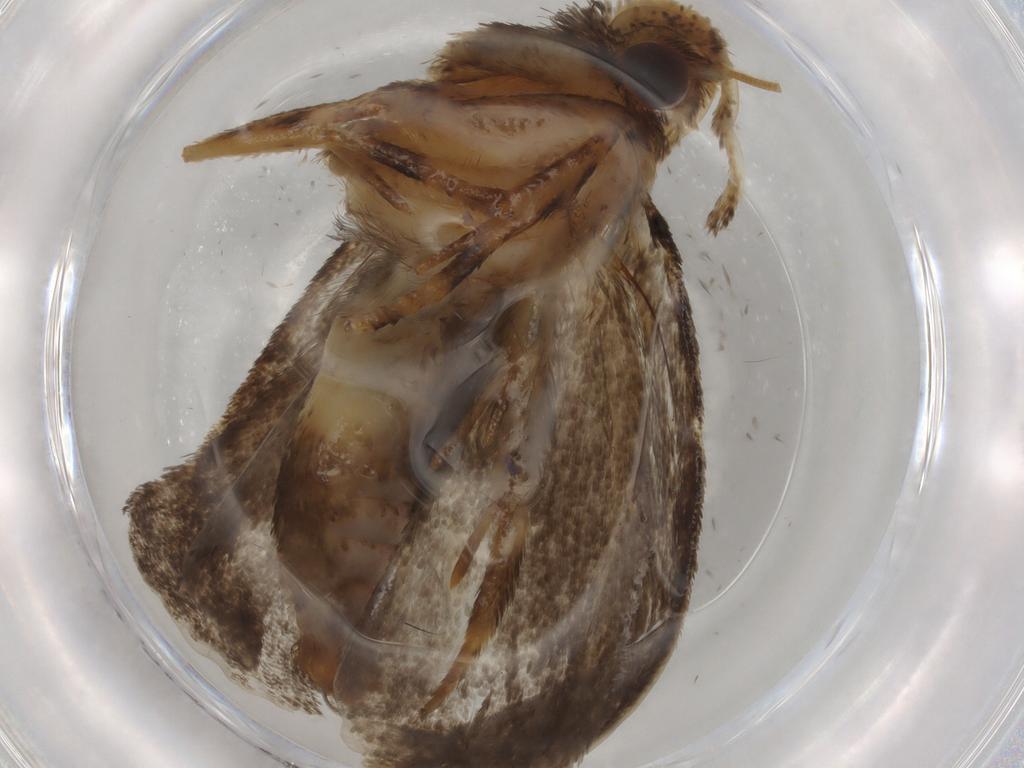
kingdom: Animalia
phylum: Arthropoda
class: Insecta
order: Lepidoptera
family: Tineidae
